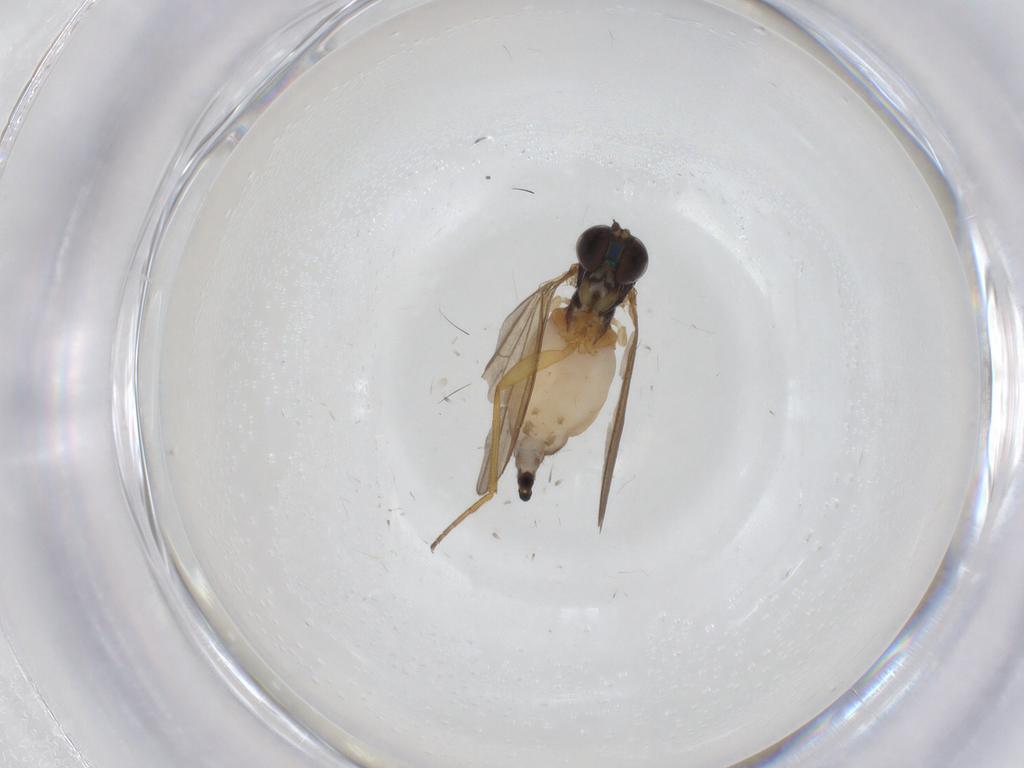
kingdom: Animalia
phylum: Arthropoda
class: Insecta
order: Diptera
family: Dolichopodidae
